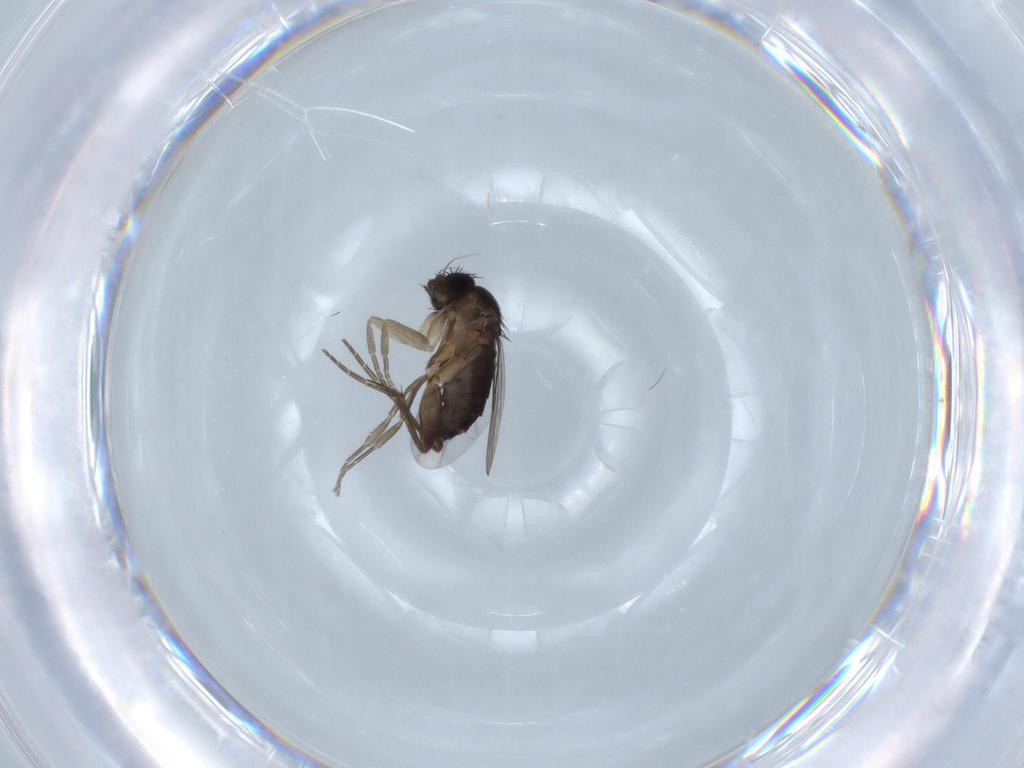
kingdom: Animalia
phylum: Arthropoda
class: Insecta
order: Diptera
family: Phoridae
